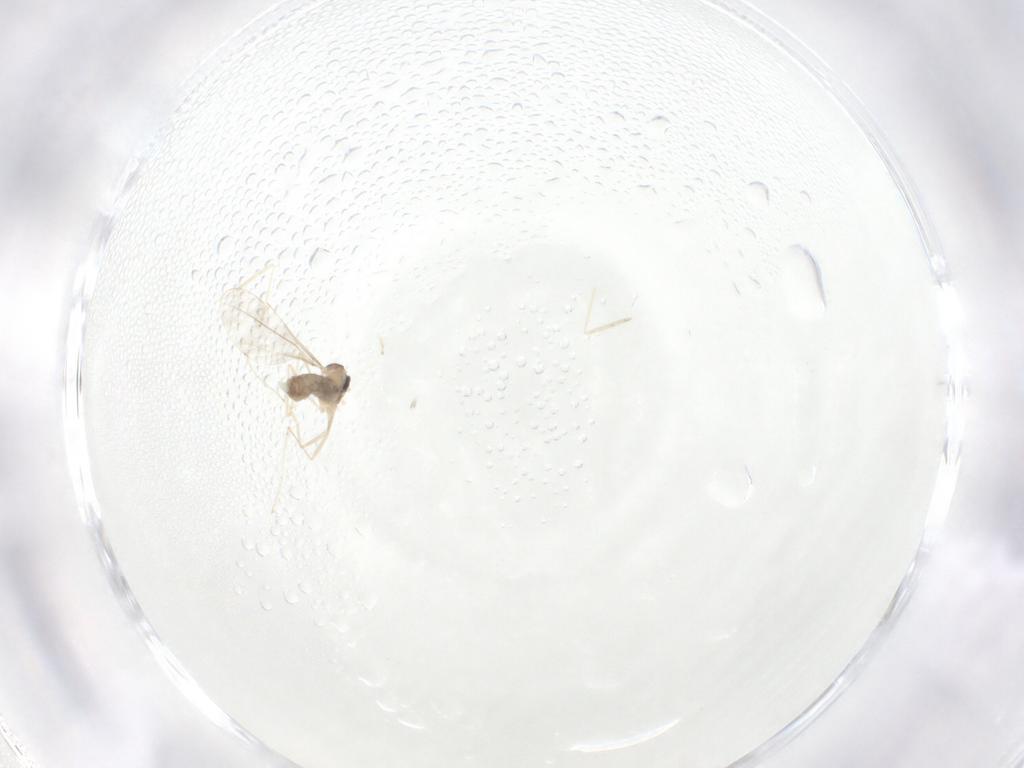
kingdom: Animalia
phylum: Arthropoda
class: Insecta
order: Diptera
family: Cecidomyiidae
